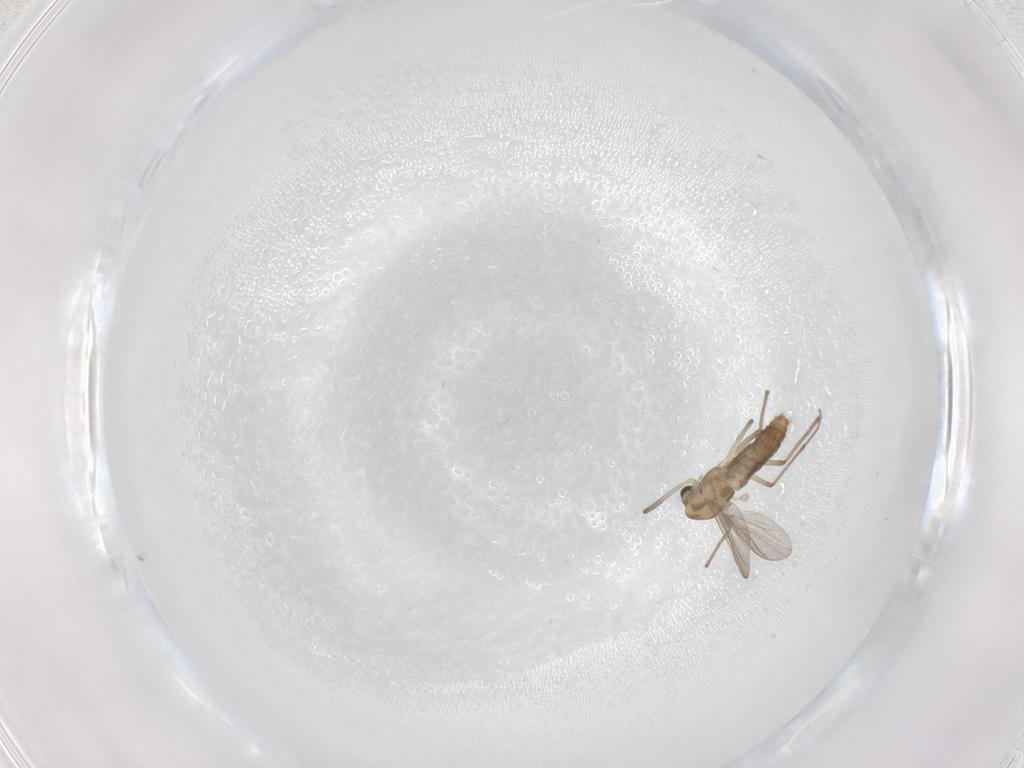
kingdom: Animalia
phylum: Arthropoda
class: Insecta
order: Diptera
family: Chironomidae
